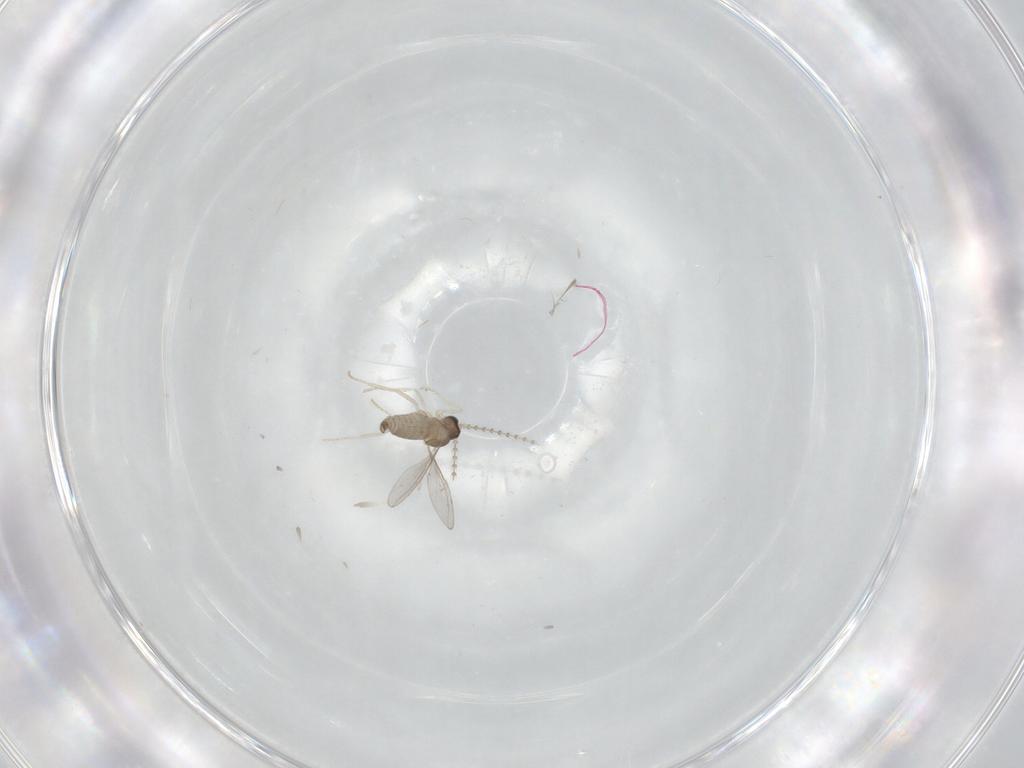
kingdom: Animalia
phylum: Arthropoda
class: Insecta
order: Diptera
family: Cecidomyiidae
